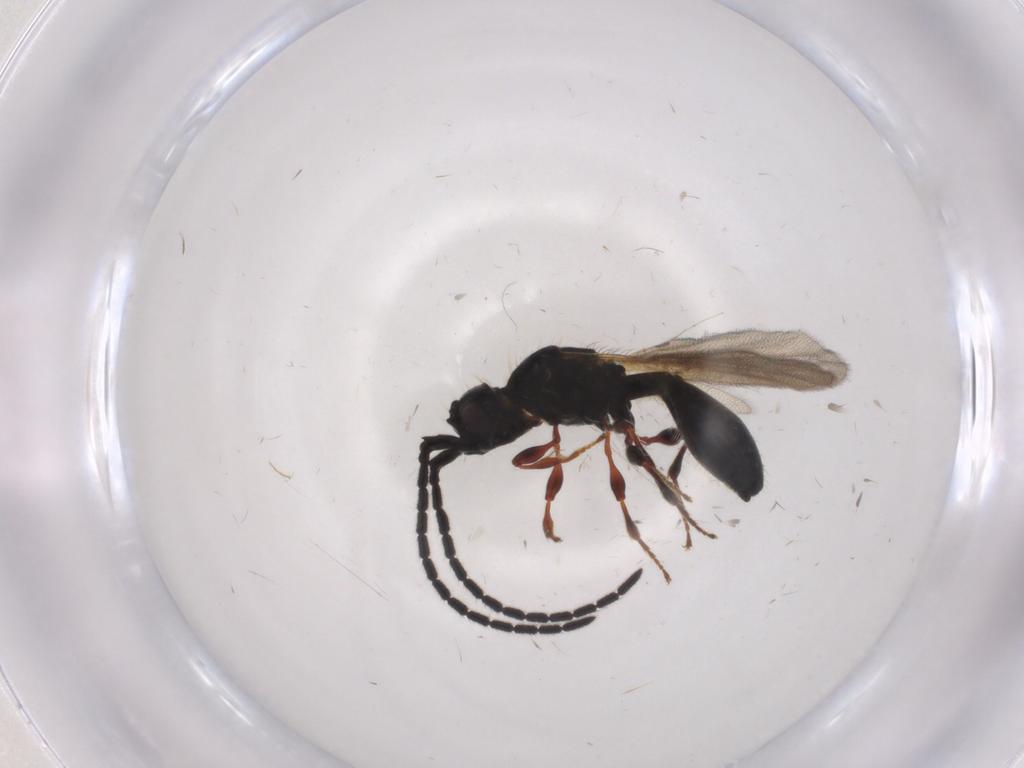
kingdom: Animalia
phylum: Arthropoda
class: Insecta
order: Hymenoptera
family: Diapriidae
